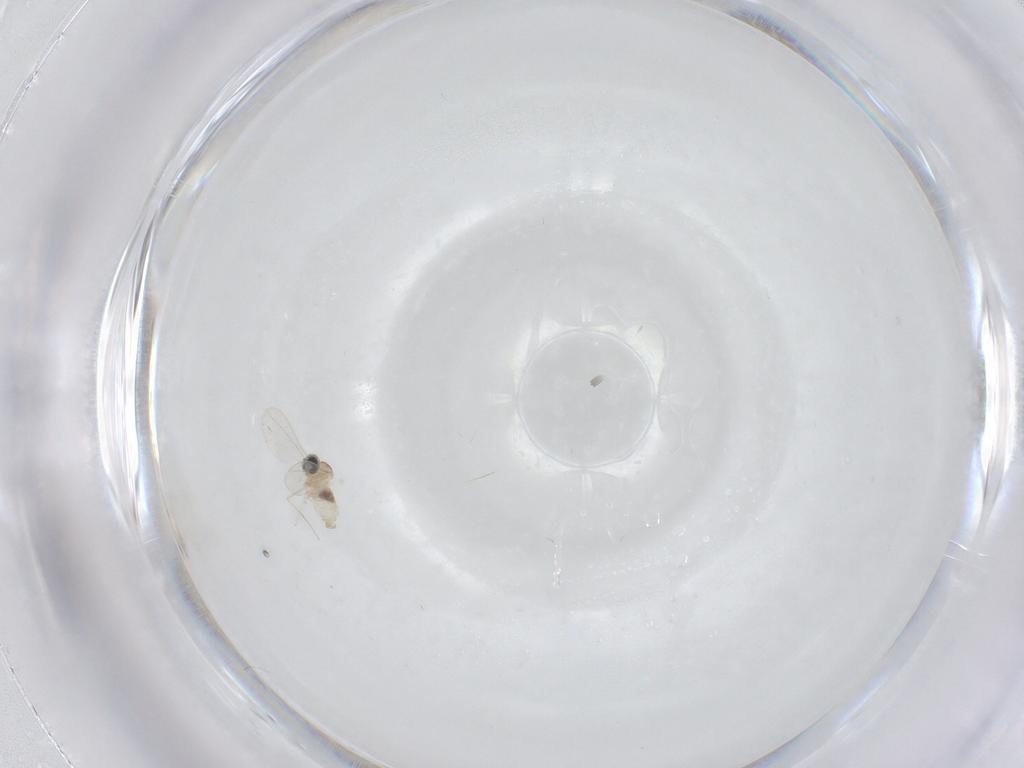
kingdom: Animalia
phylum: Arthropoda
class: Insecta
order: Diptera
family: Cecidomyiidae
